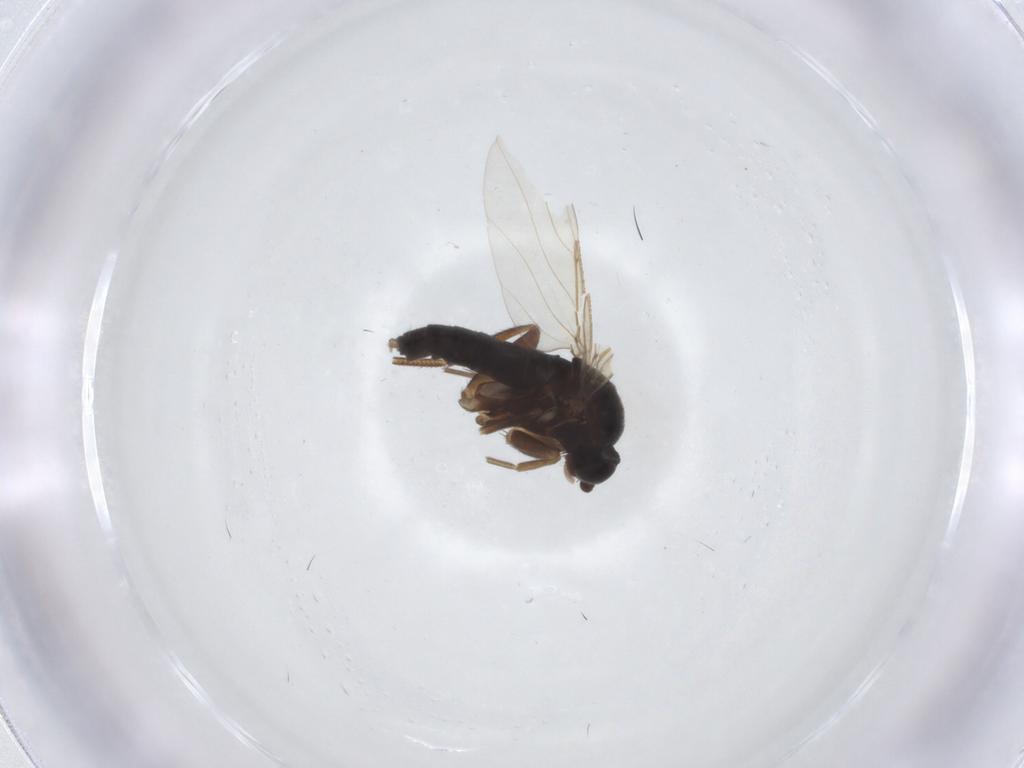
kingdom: Animalia
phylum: Arthropoda
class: Insecta
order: Diptera
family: Phoridae
